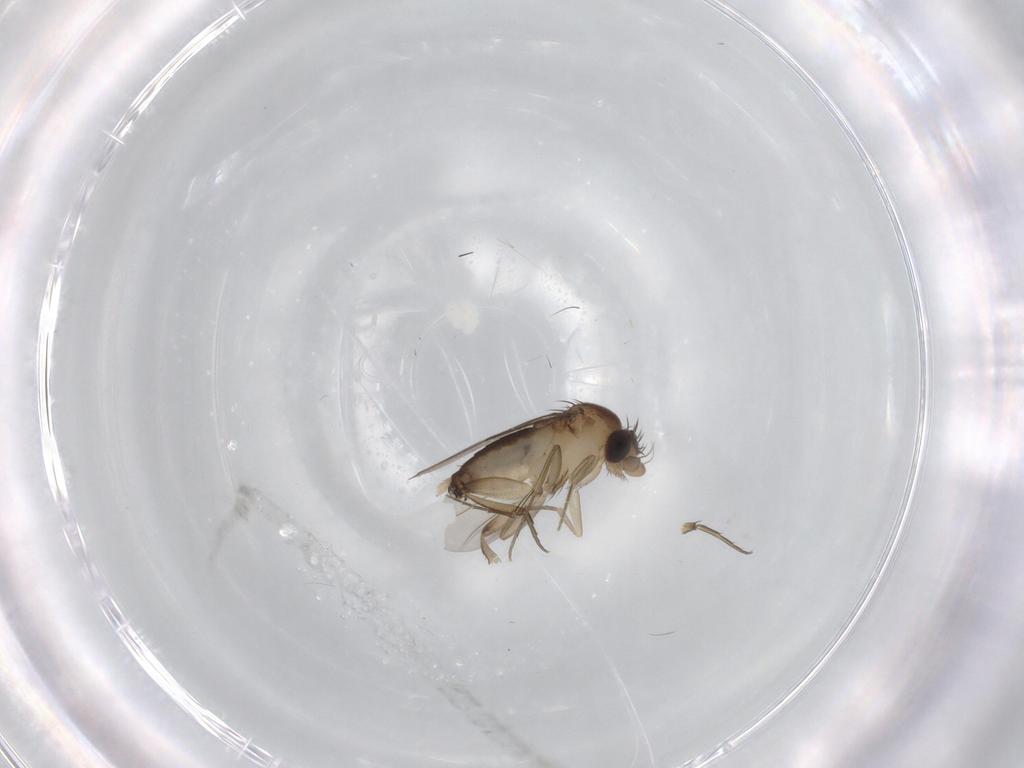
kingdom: Animalia
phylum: Arthropoda
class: Insecta
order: Diptera
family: Phoridae
